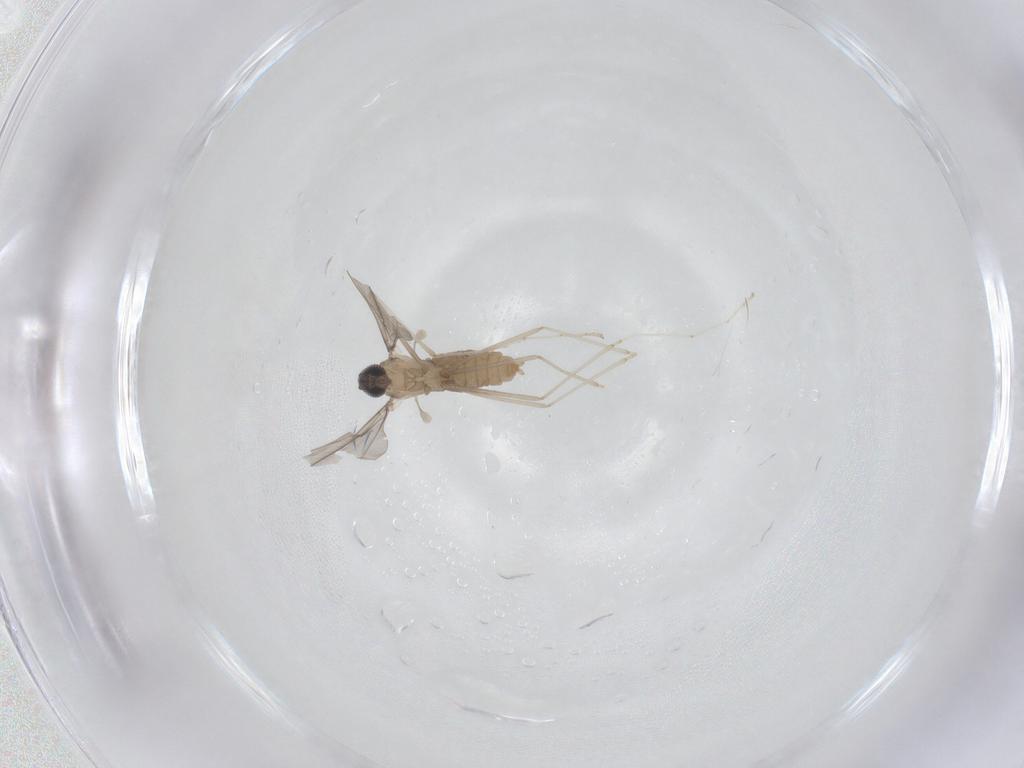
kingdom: Animalia
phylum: Arthropoda
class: Insecta
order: Diptera
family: Cecidomyiidae
